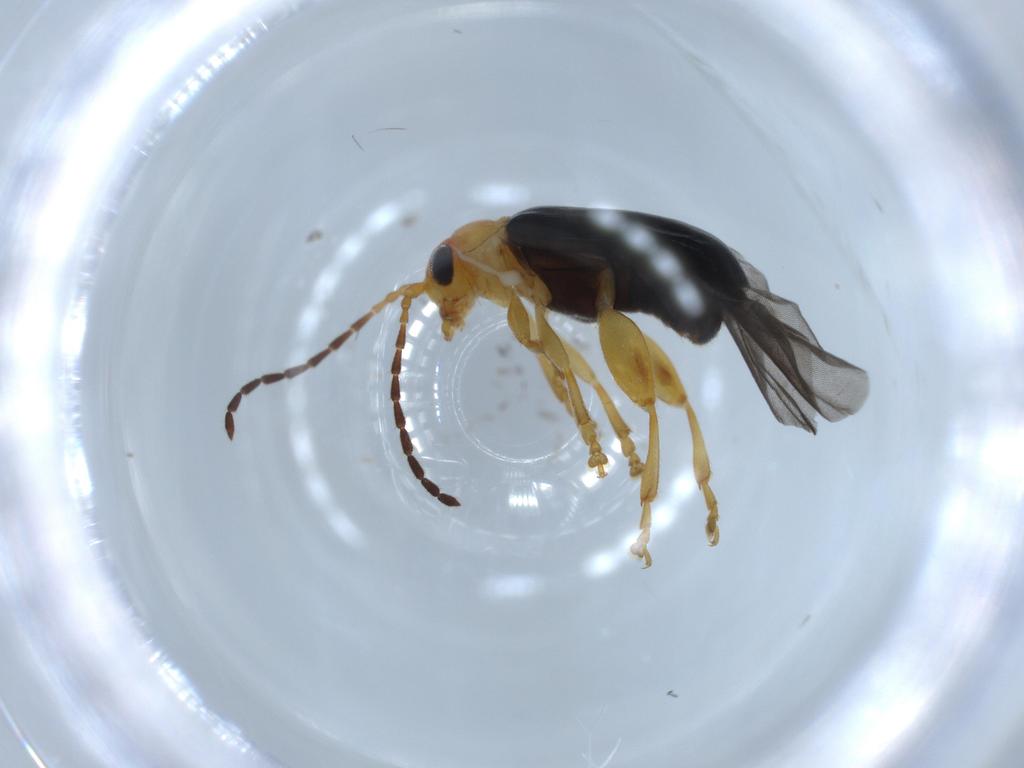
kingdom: Animalia
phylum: Arthropoda
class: Insecta
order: Coleoptera
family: Chrysomelidae
